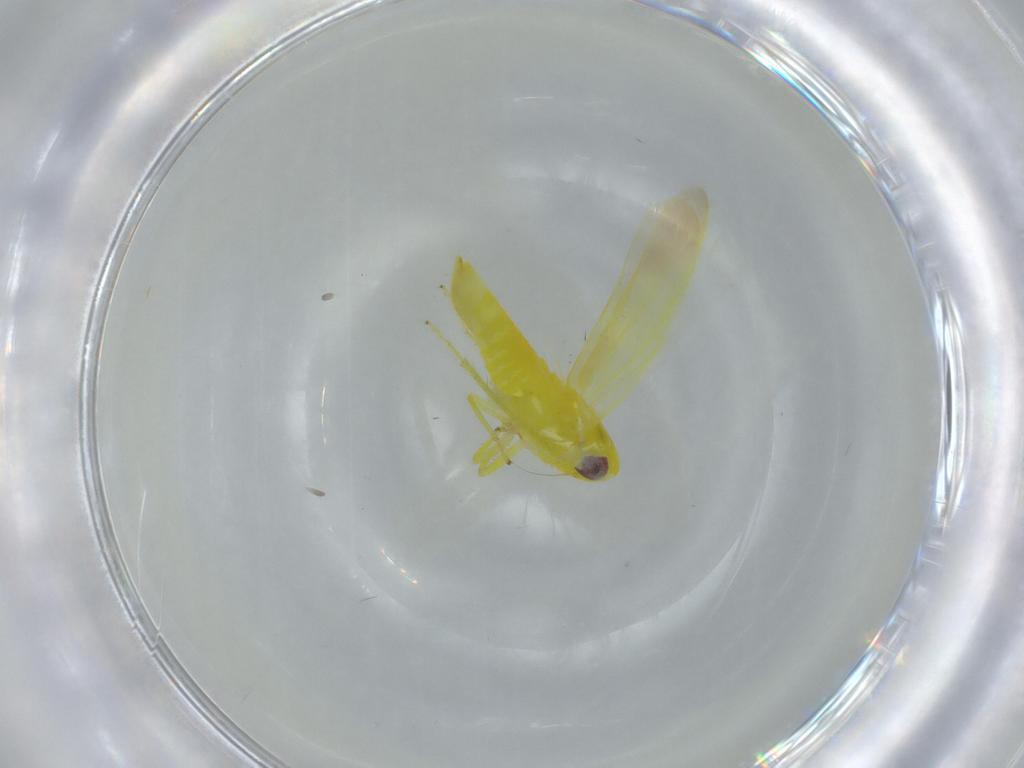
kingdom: Animalia
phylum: Arthropoda
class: Insecta
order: Hemiptera
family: Cicadellidae
